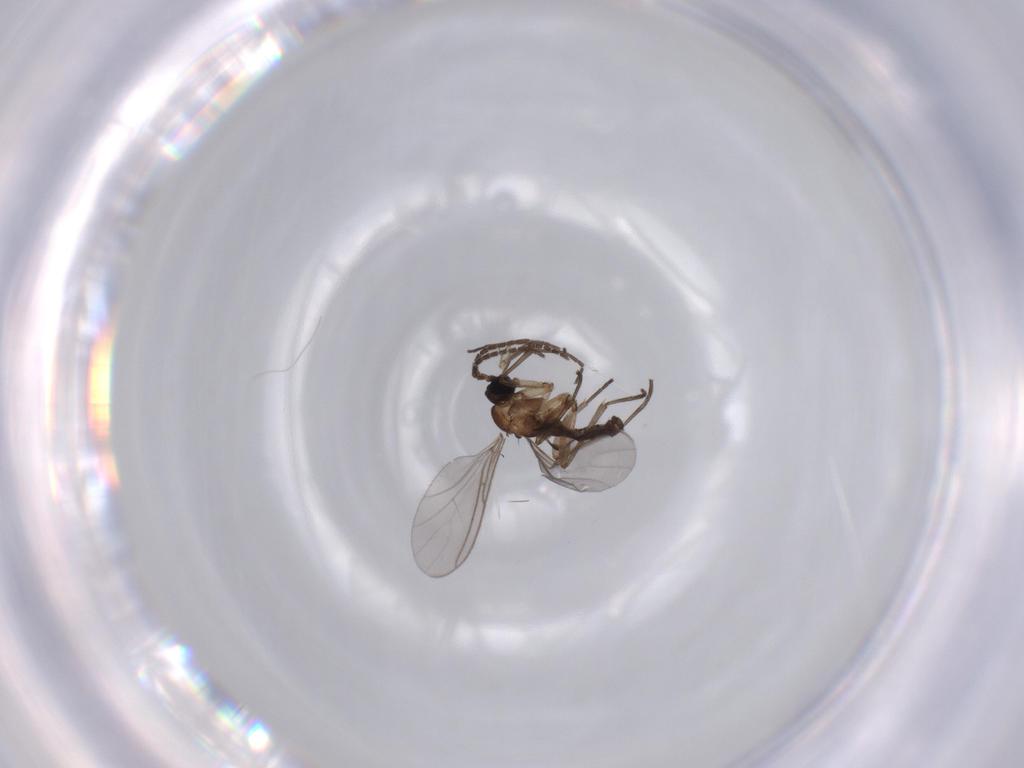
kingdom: Animalia
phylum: Arthropoda
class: Insecta
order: Diptera
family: Sciaridae
